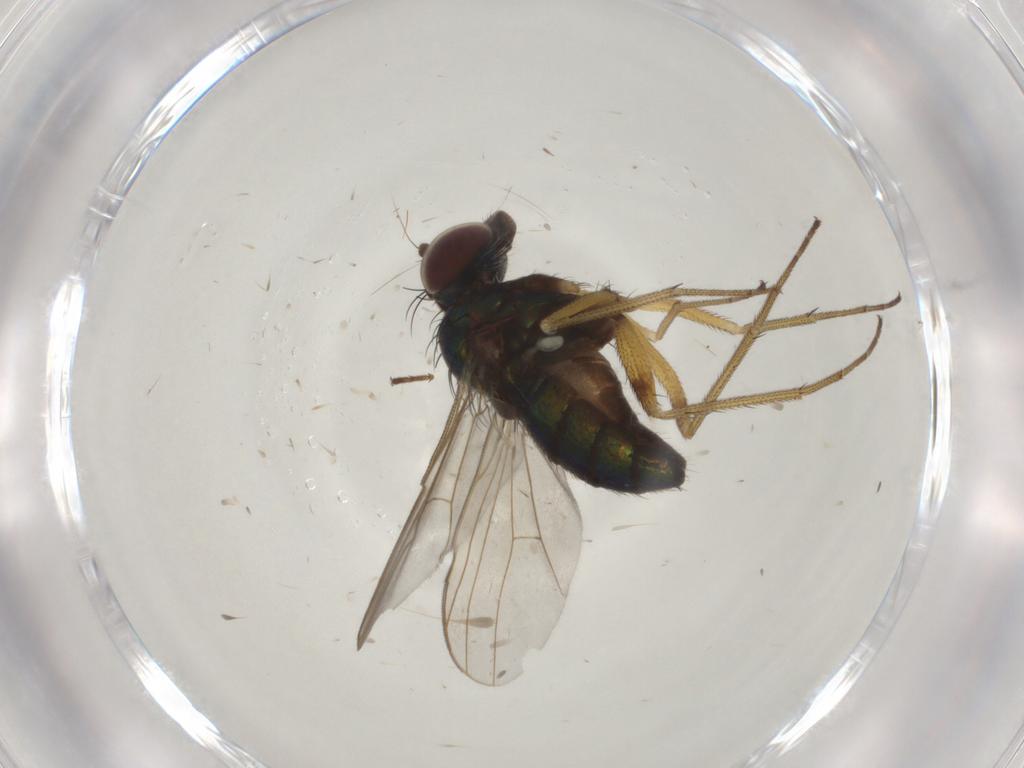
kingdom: Animalia
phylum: Arthropoda
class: Insecta
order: Diptera
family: Dolichopodidae
